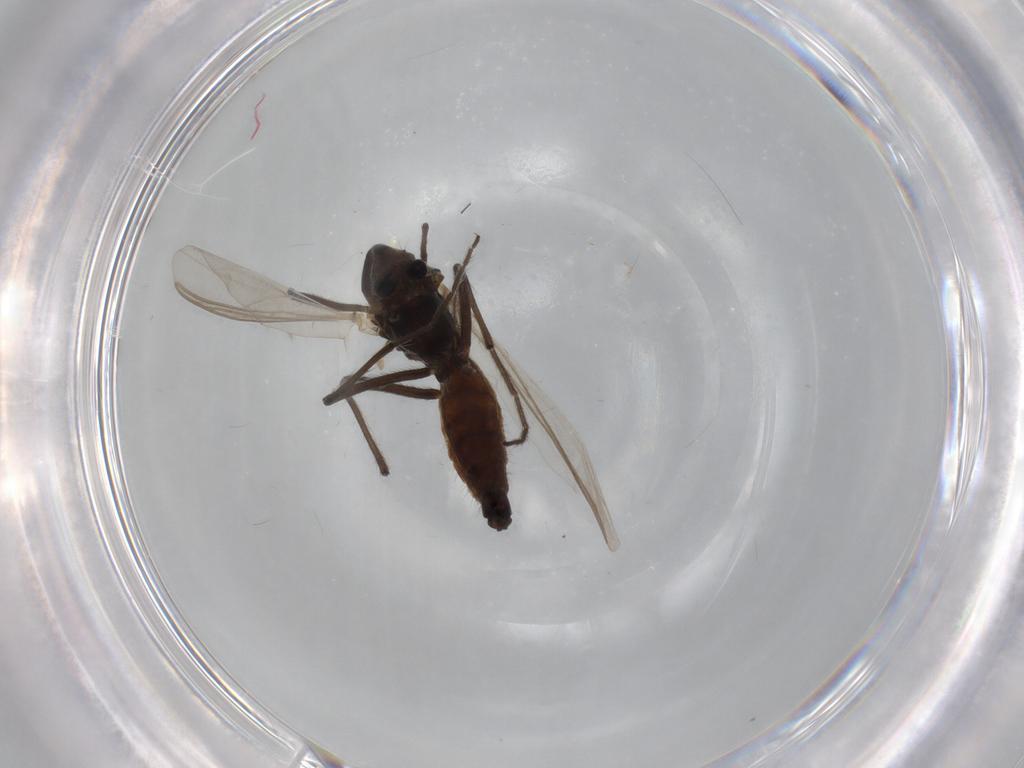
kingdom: Animalia
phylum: Arthropoda
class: Insecta
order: Diptera
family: Chironomidae
